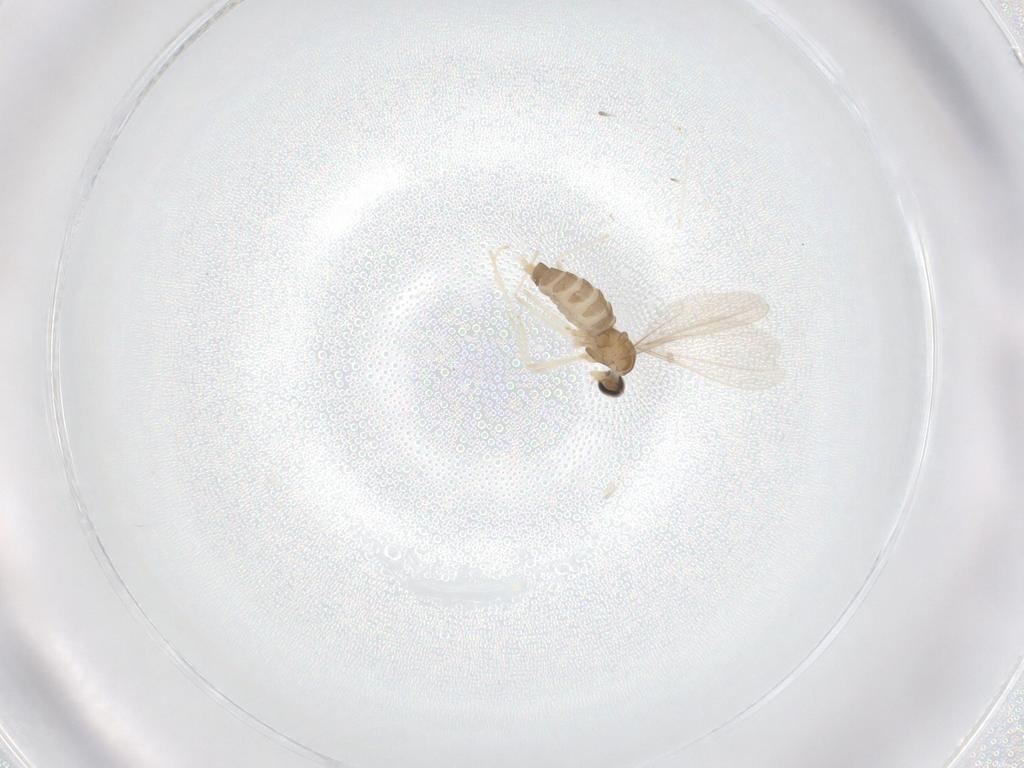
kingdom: Animalia
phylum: Arthropoda
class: Insecta
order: Diptera
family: Cecidomyiidae
